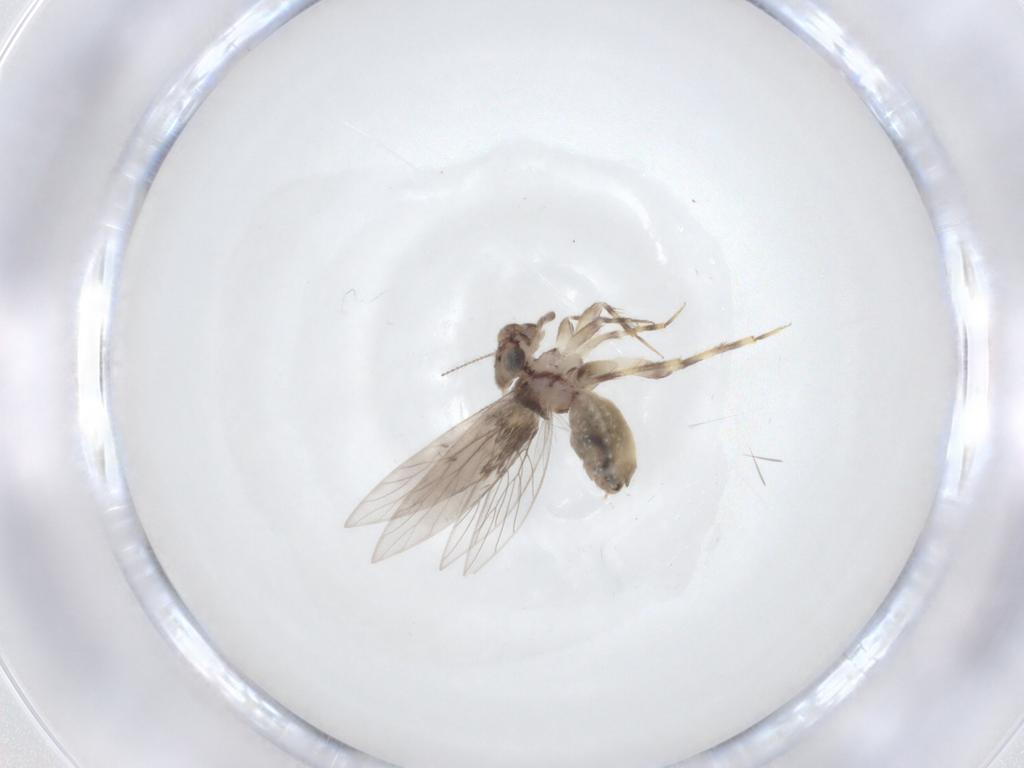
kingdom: Animalia
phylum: Arthropoda
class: Insecta
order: Psocodea
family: Lepidopsocidae
